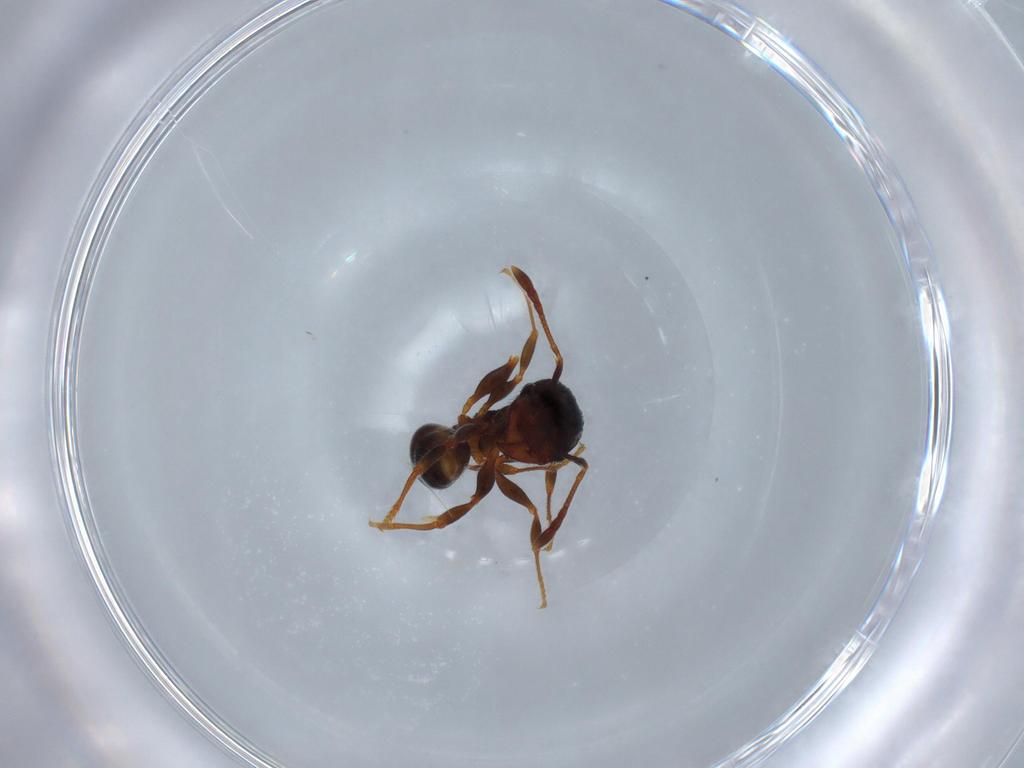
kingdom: Animalia
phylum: Arthropoda
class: Insecta
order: Hymenoptera
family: Formicidae
